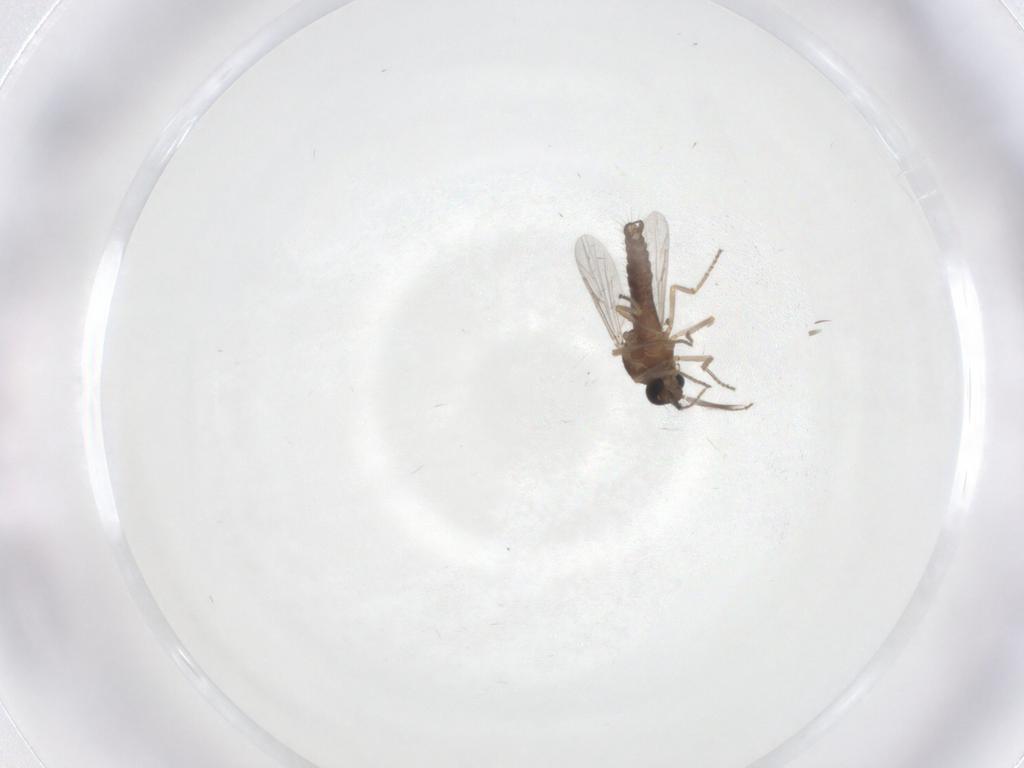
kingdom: Animalia
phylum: Arthropoda
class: Insecta
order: Diptera
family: Ceratopogonidae
